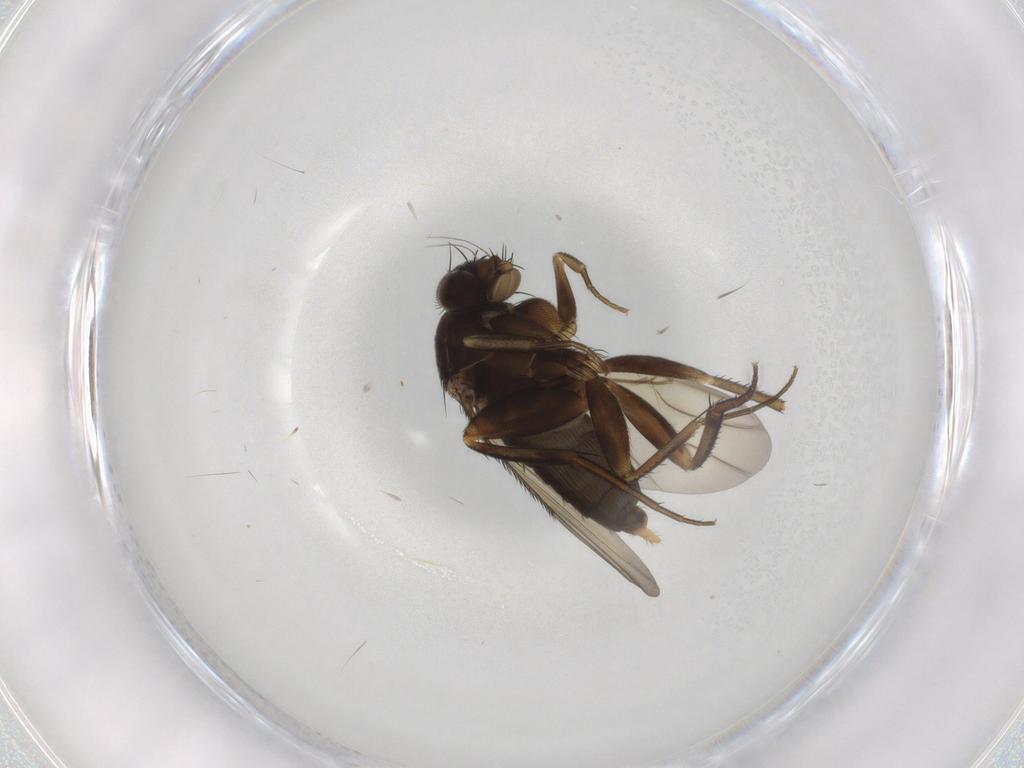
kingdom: Animalia
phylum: Arthropoda
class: Insecta
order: Diptera
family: Phoridae
